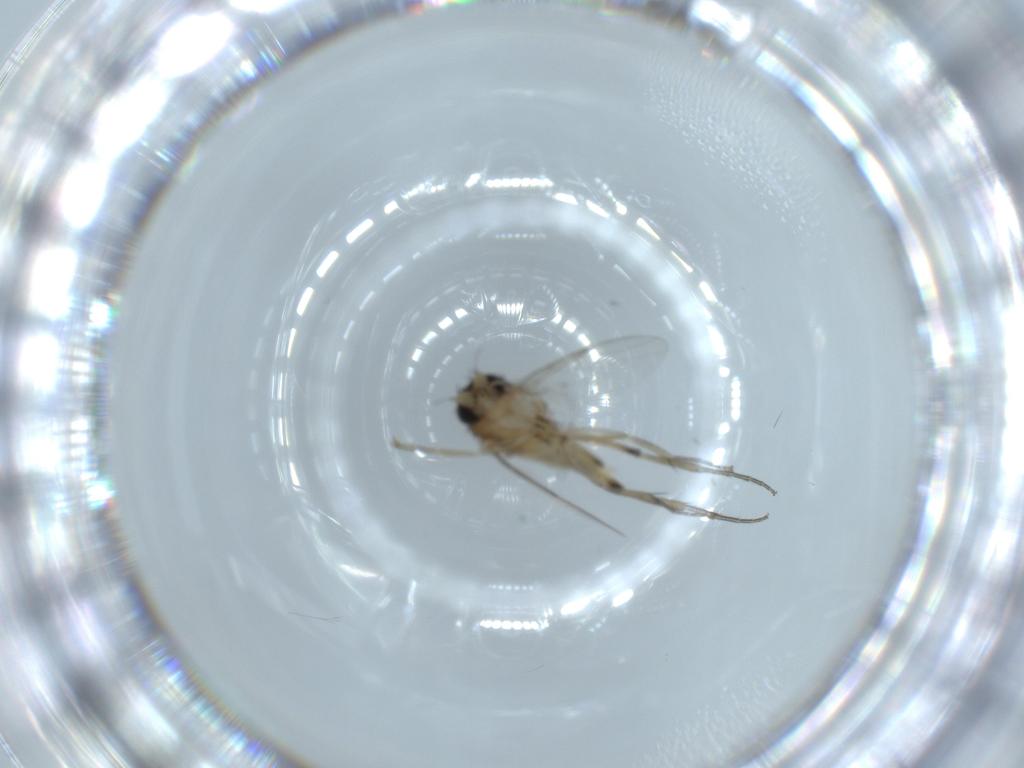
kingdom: Animalia
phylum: Arthropoda
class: Insecta
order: Diptera
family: Phoridae
